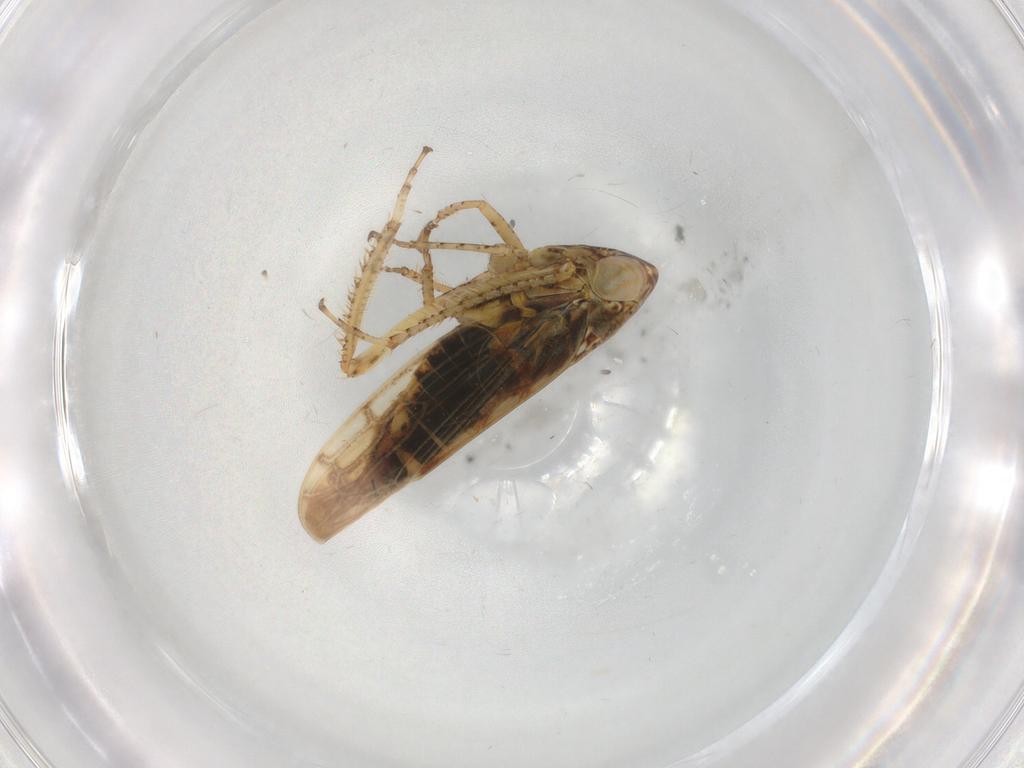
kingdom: Animalia
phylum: Arthropoda
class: Insecta
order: Hemiptera
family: Cicadellidae
